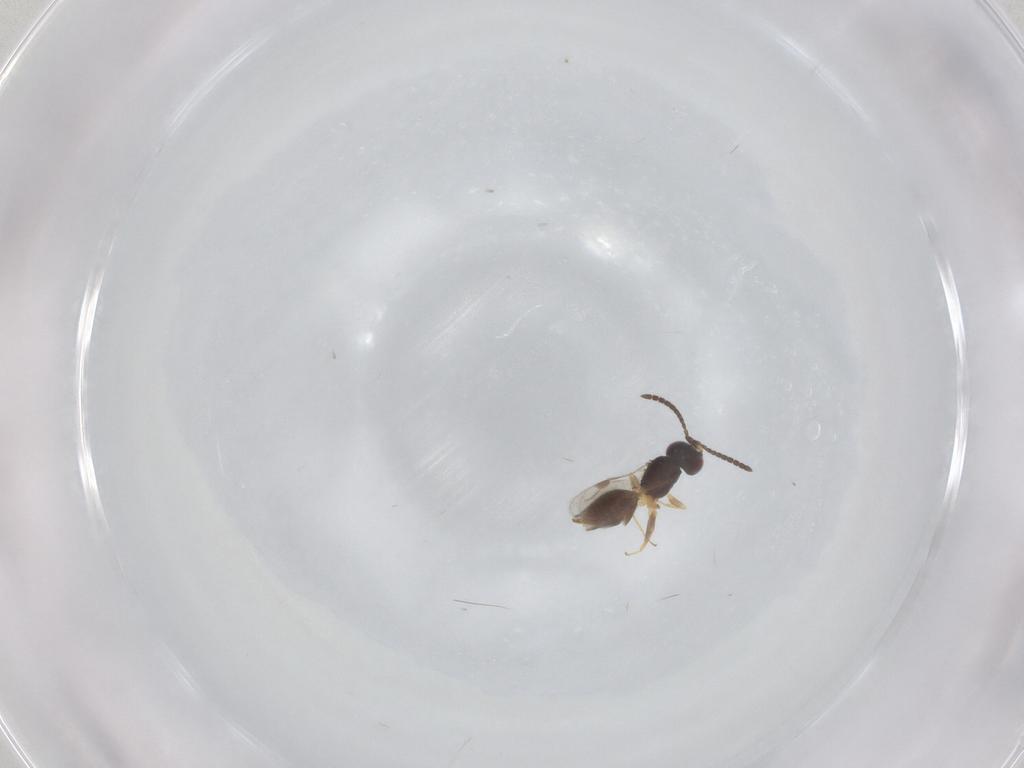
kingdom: Animalia
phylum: Arthropoda
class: Insecta
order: Hymenoptera
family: Megaspilidae
